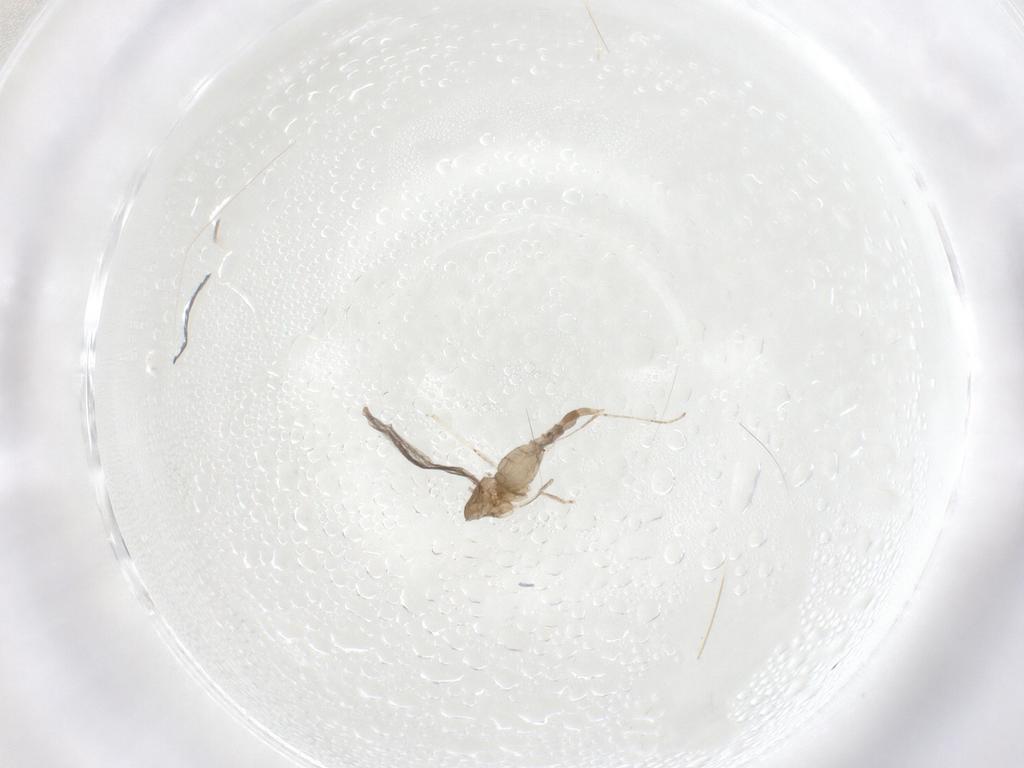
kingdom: Animalia
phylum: Arthropoda
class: Insecta
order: Diptera
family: Cecidomyiidae
